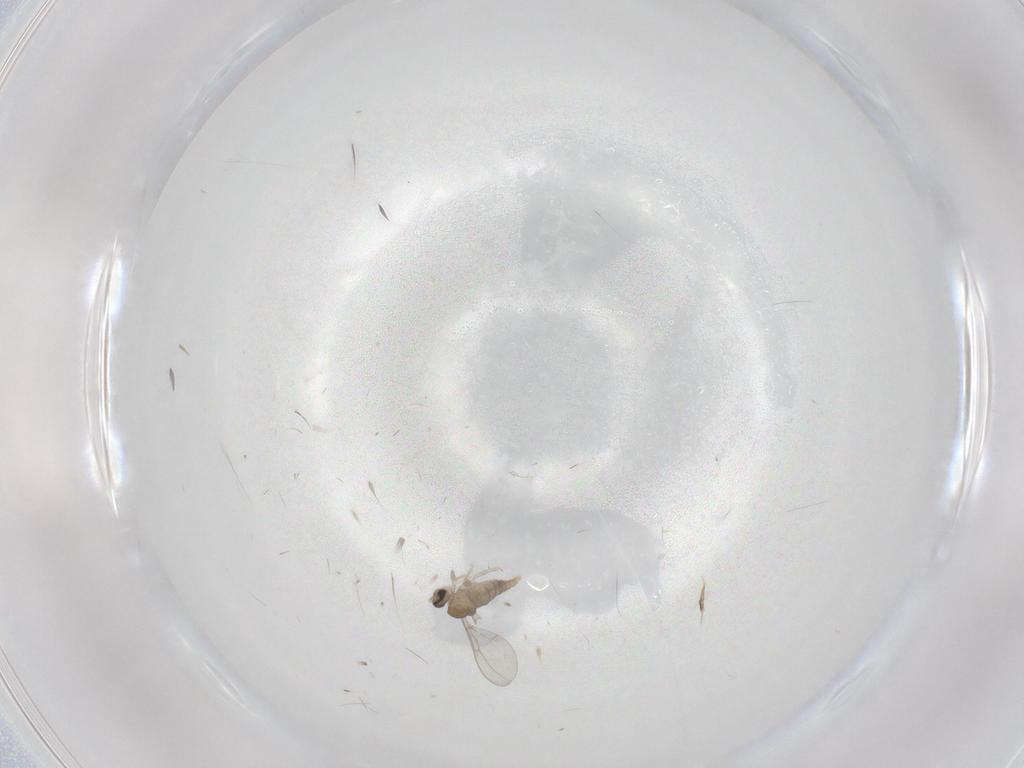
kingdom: Animalia
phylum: Arthropoda
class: Insecta
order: Diptera
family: Cecidomyiidae
